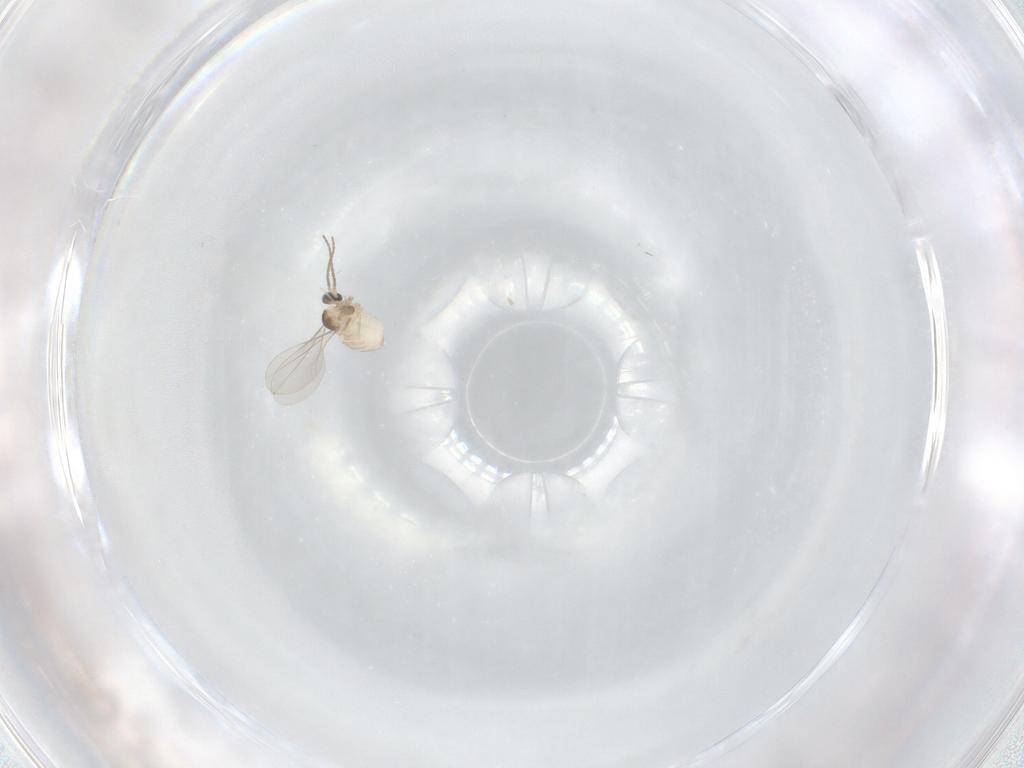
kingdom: Animalia
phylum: Arthropoda
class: Insecta
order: Diptera
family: Cecidomyiidae
